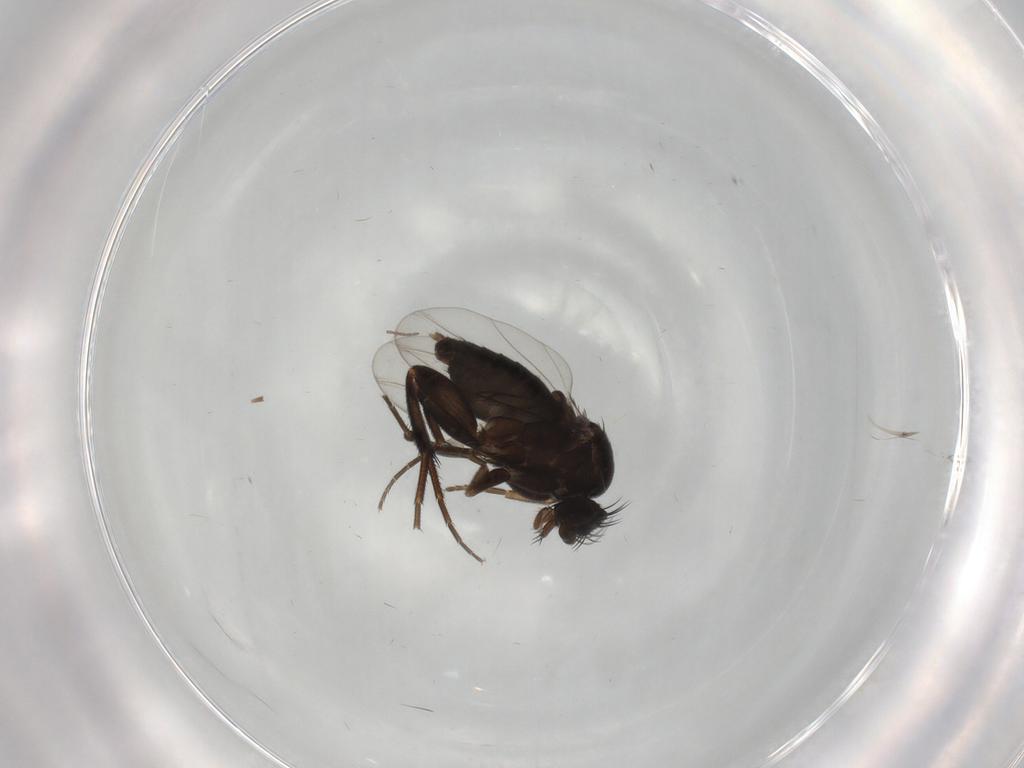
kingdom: Animalia
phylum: Arthropoda
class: Insecta
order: Diptera
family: Phoridae
